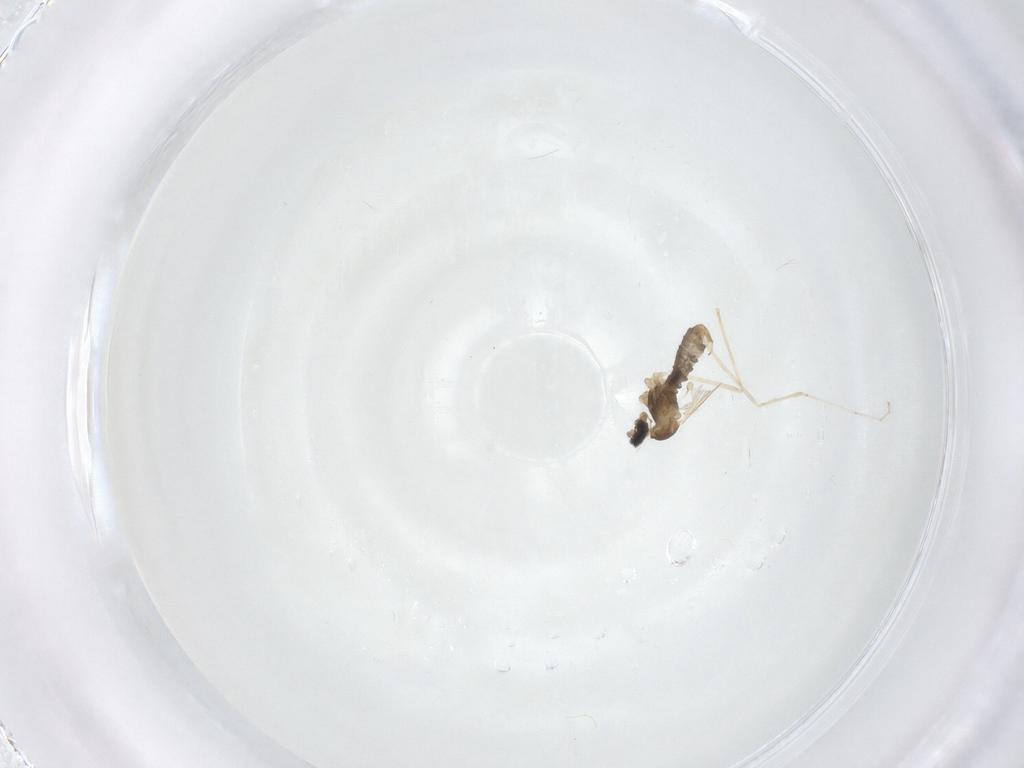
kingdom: Animalia
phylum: Arthropoda
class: Insecta
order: Diptera
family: Cecidomyiidae
